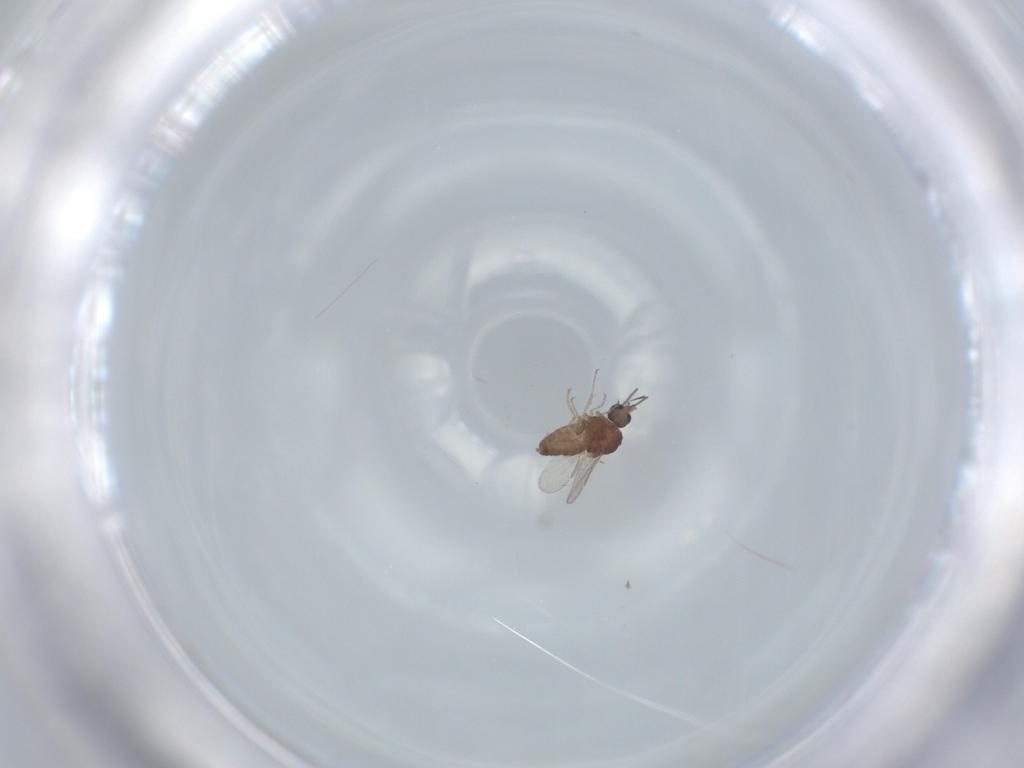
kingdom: Animalia
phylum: Arthropoda
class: Insecta
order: Diptera
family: Ceratopogonidae
